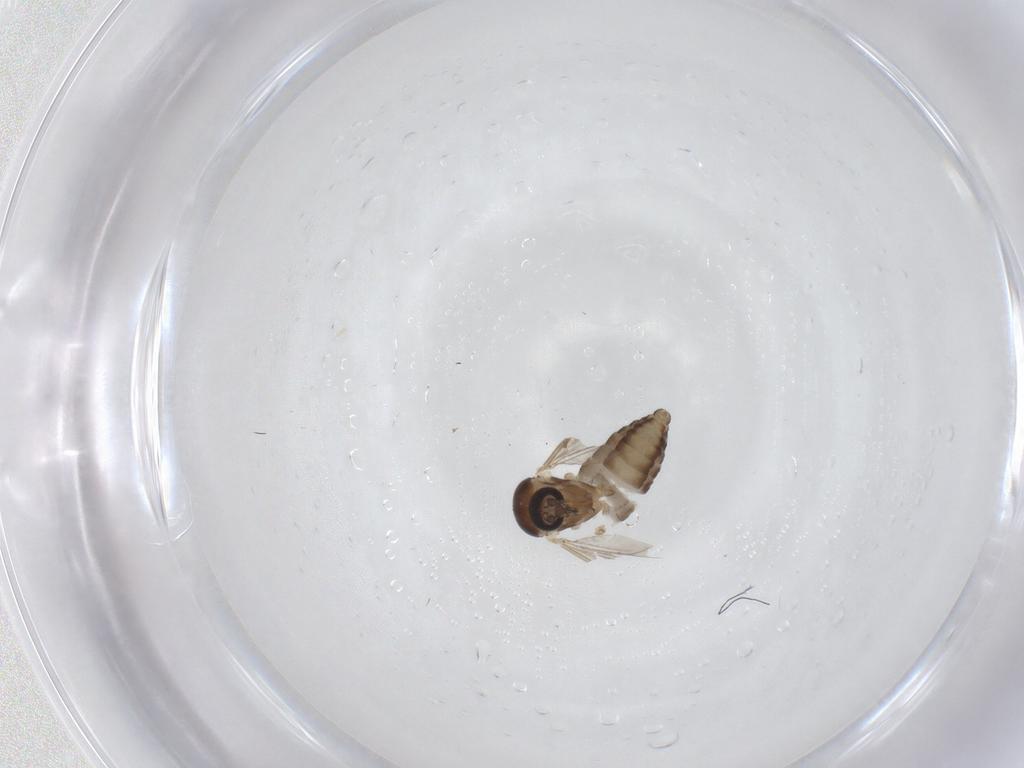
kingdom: Animalia
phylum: Arthropoda
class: Insecta
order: Diptera
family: Ceratopogonidae
